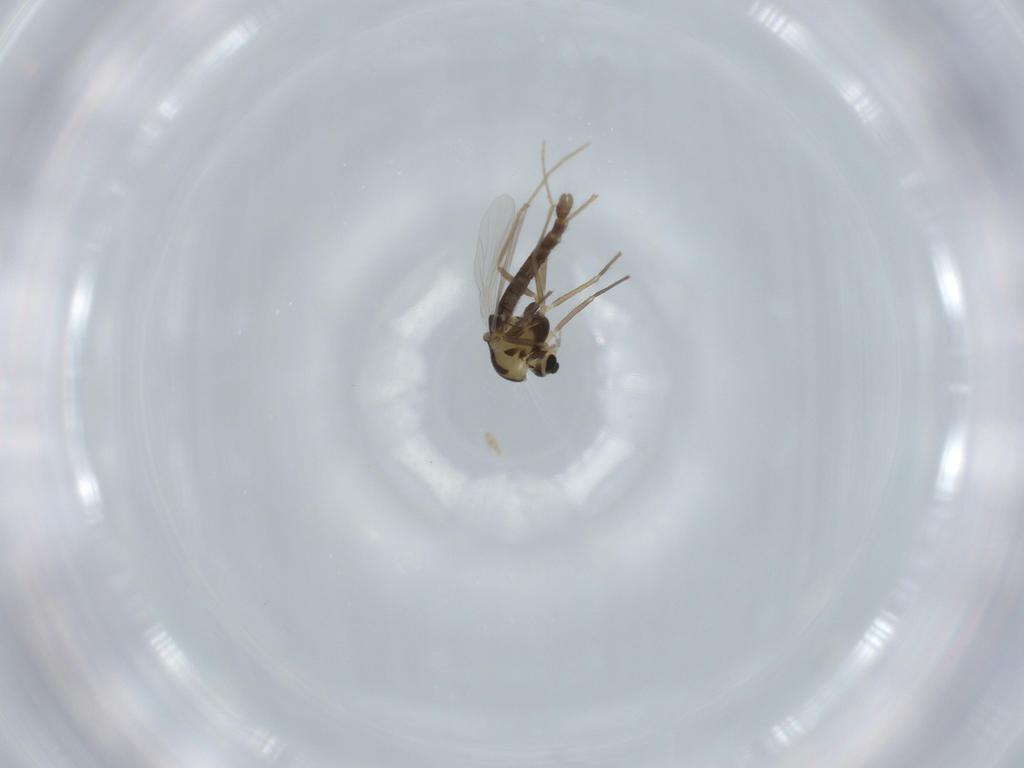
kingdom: Animalia
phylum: Arthropoda
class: Insecta
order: Diptera
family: Chironomidae
